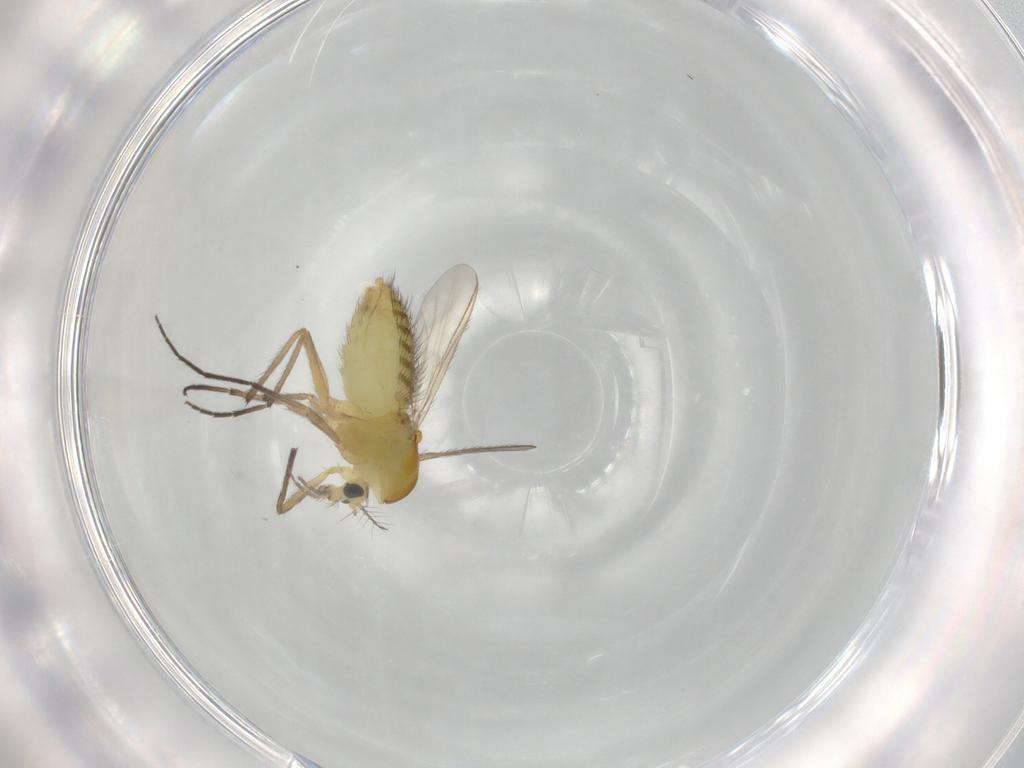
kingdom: Animalia
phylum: Arthropoda
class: Insecta
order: Diptera
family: Chironomidae
